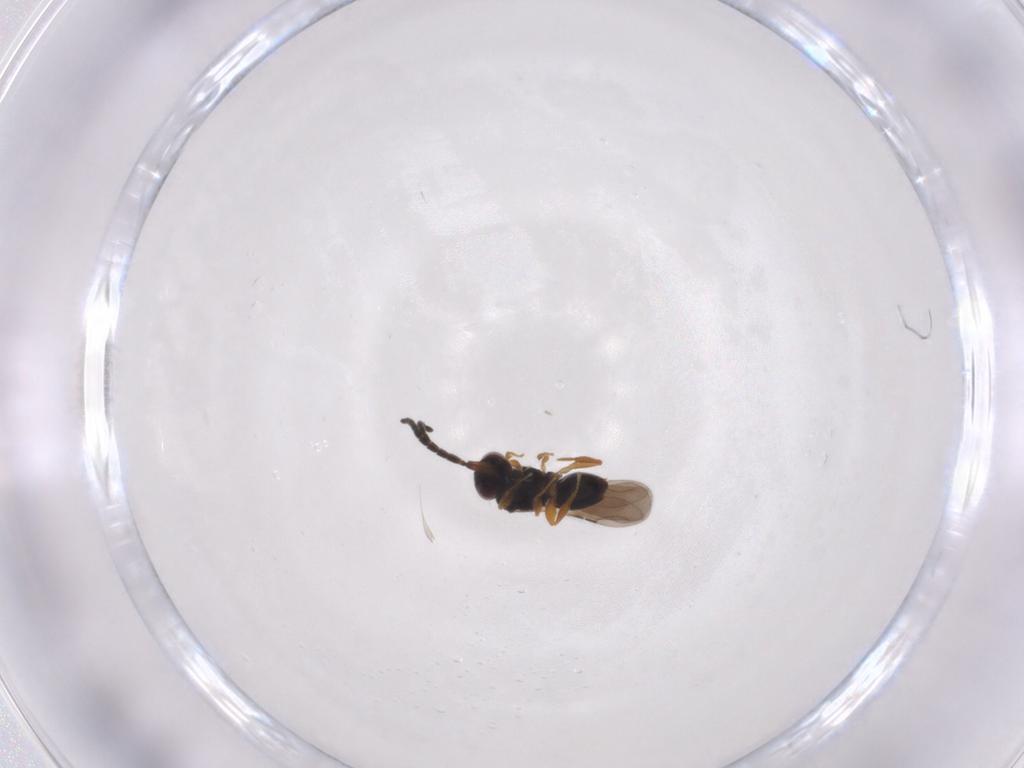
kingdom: Animalia
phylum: Arthropoda
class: Insecta
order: Hymenoptera
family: Ceraphronidae
